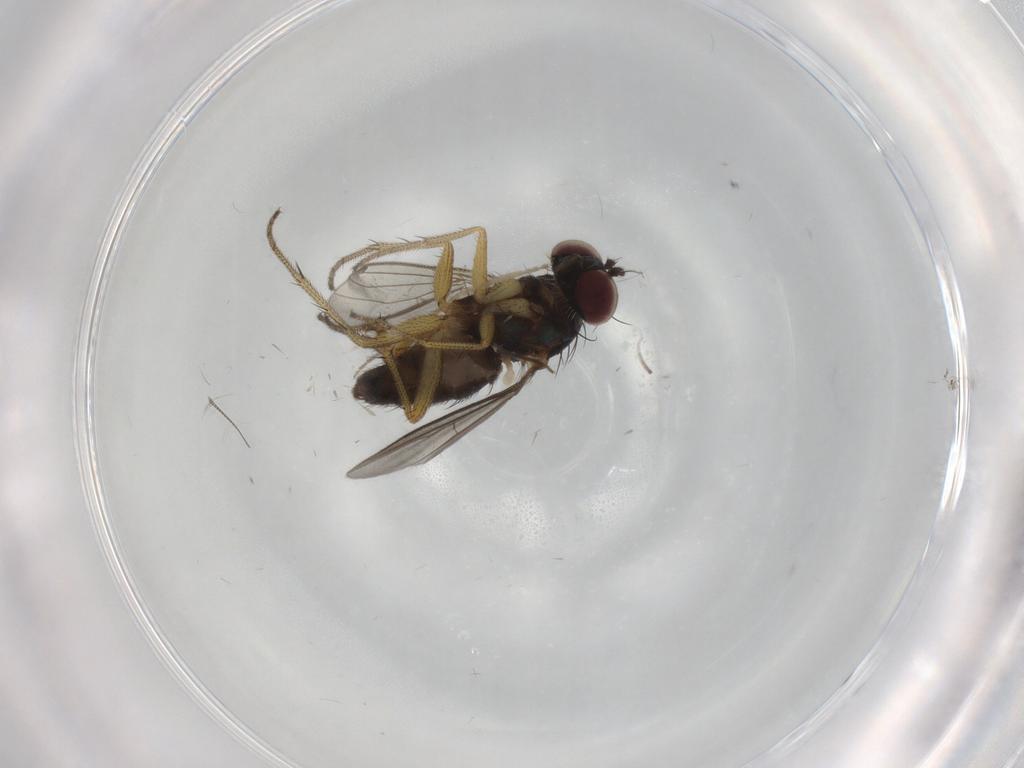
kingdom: Animalia
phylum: Arthropoda
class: Insecta
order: Diptera
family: Dolichopodidae
